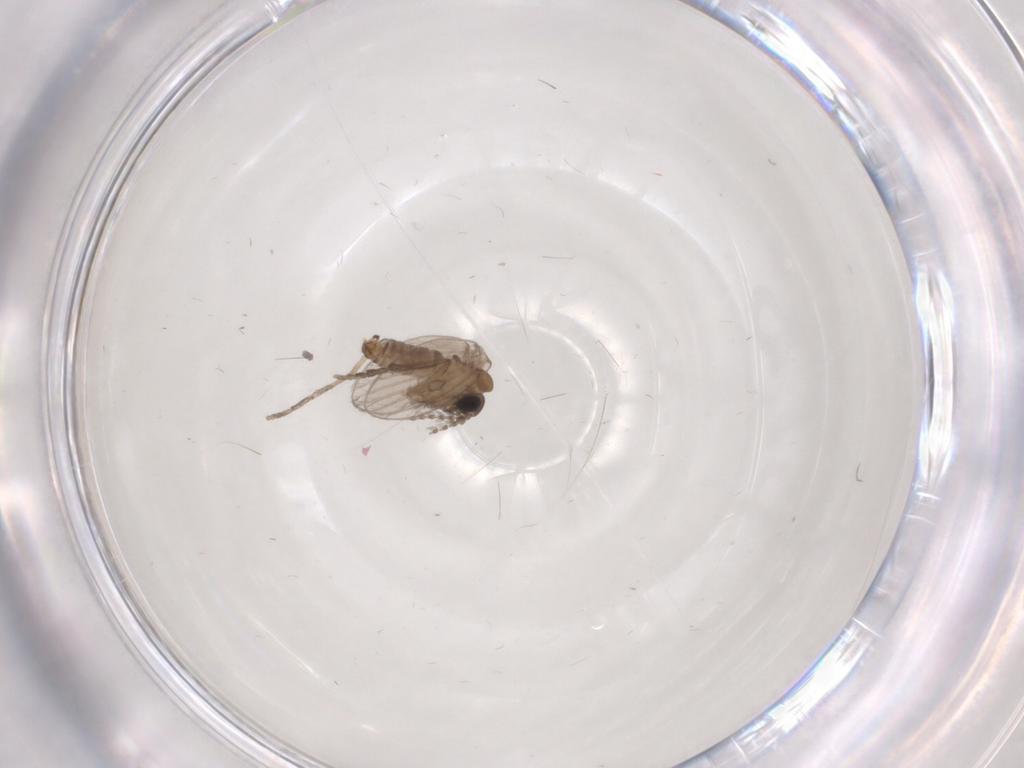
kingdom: Animalia
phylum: Arthropoda
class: Insecta
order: Diptera
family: Psychodidae
